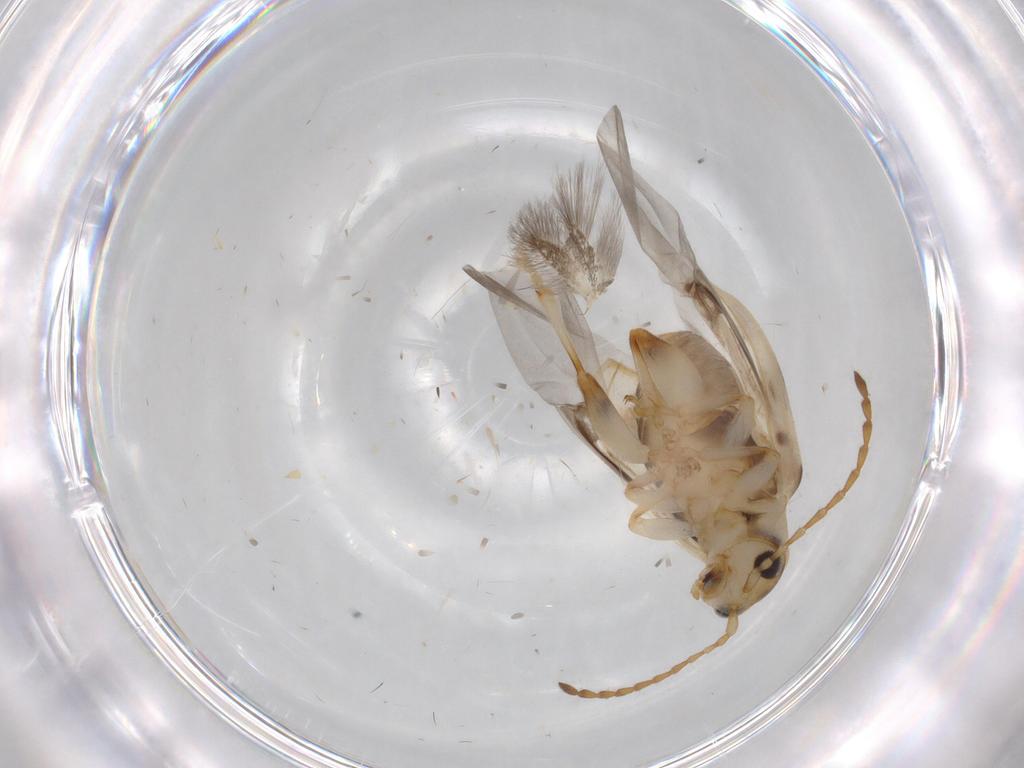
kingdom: Animalia
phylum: Arthropoda
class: Insecta
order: Coleoptera
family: Chrysomelidae
